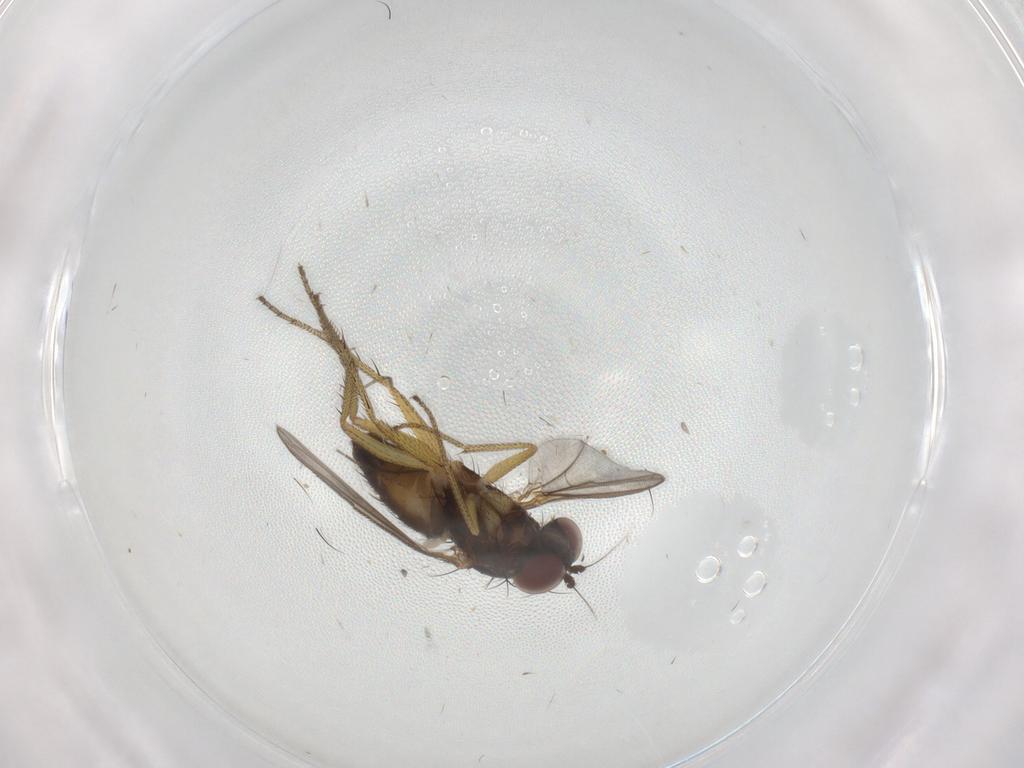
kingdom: Animalia
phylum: Arthropoda
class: Insecta
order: Diptera
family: Dolichopodidae
